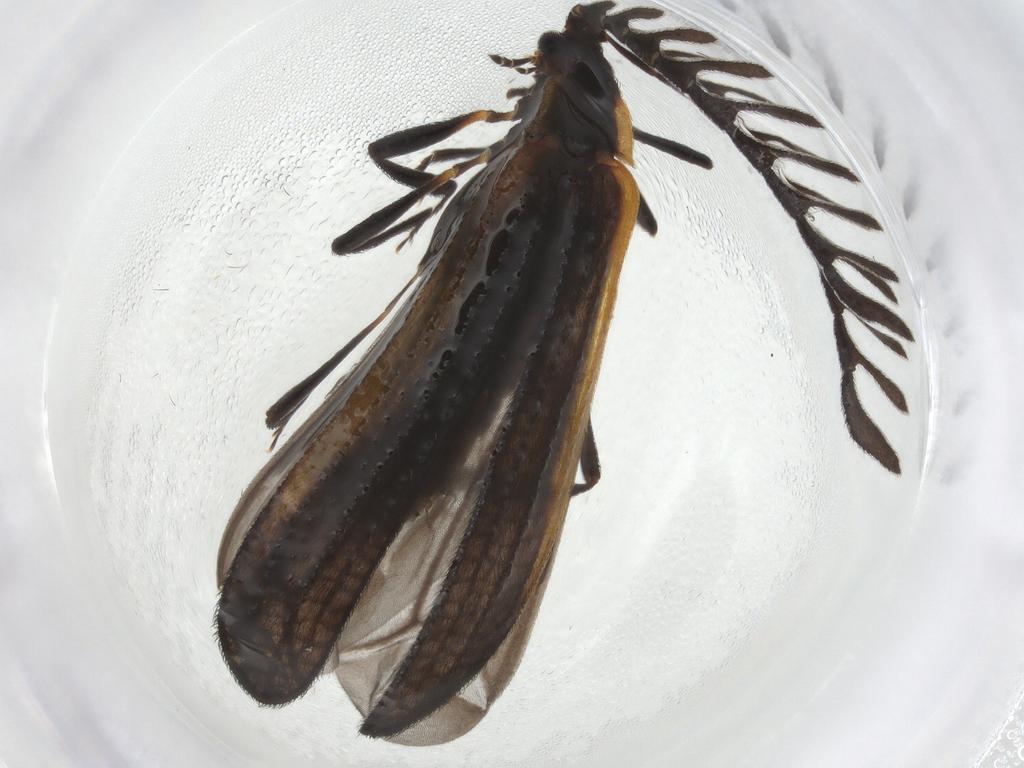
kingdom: Animalia
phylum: Arthropoda
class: Insecta
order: Coleoptera
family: Lycidae
